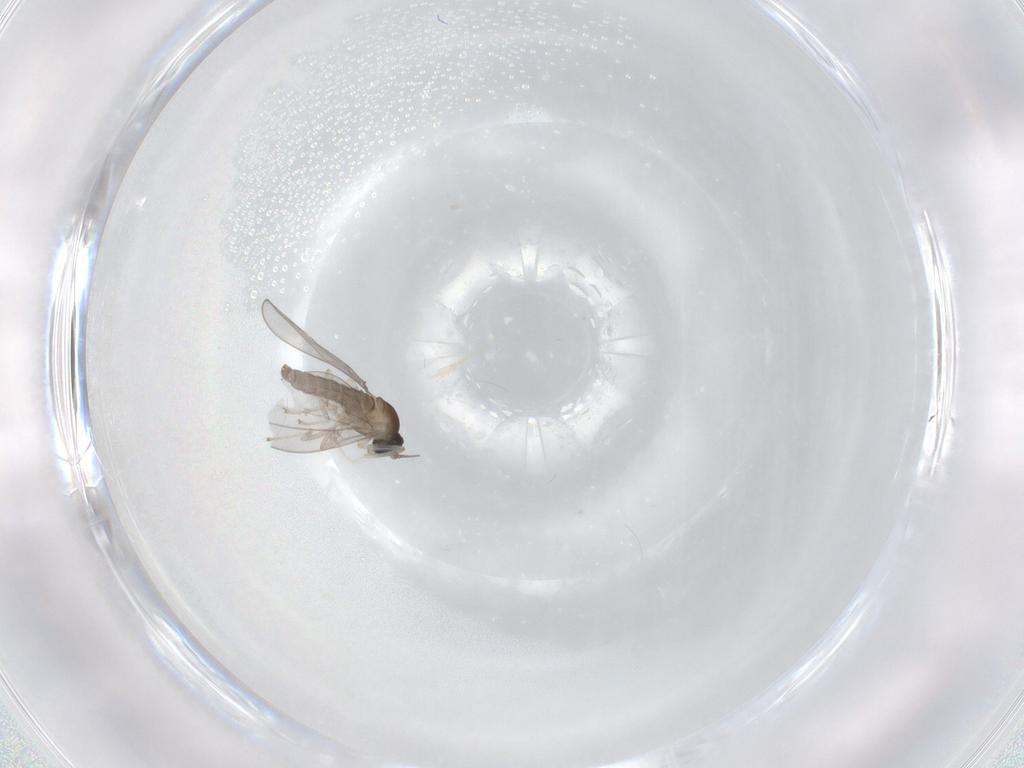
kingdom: Animalia
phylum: Arthropoda
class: Insecta
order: Diptera
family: Cecidomyiidae
